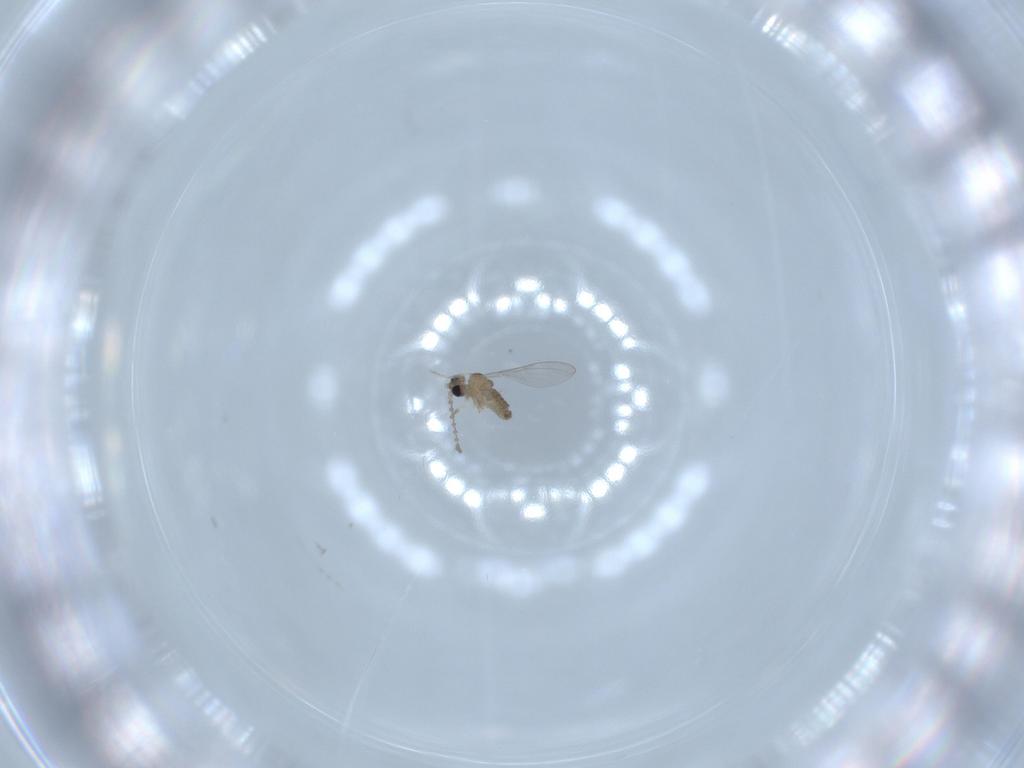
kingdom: Animalia
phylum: Arthropoda
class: Insecta
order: Diptera
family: Cecidomyiidae
